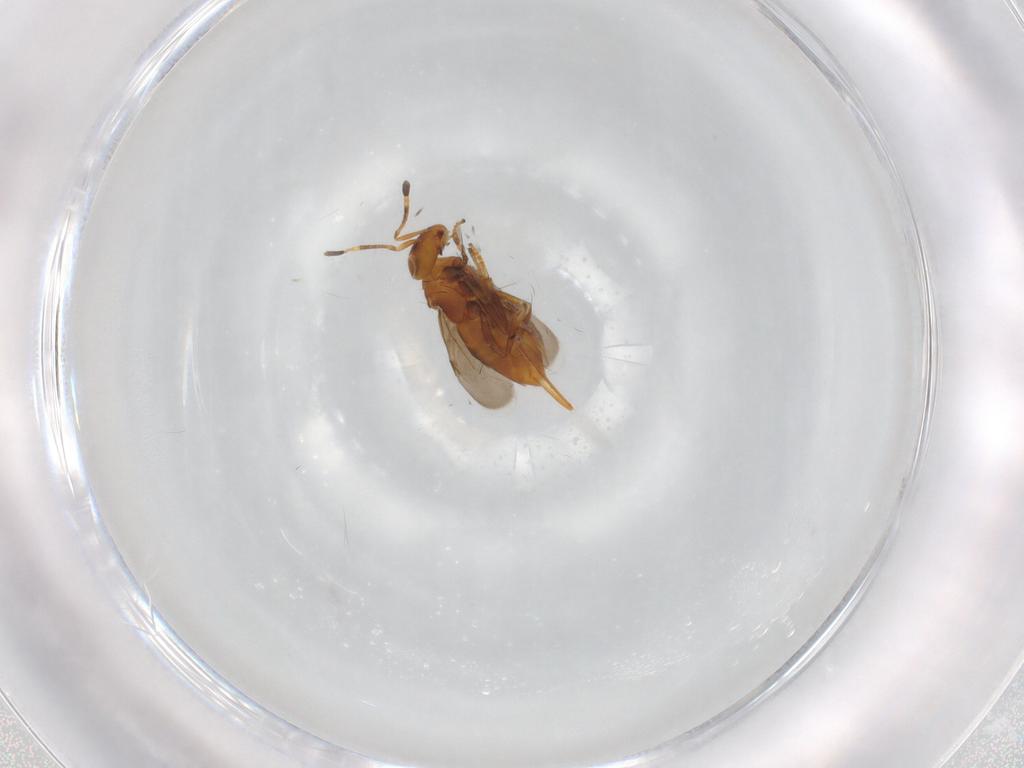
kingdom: Animalia
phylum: Arthropoda
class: Insecta
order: Hymenoptera
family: Eulophidae
